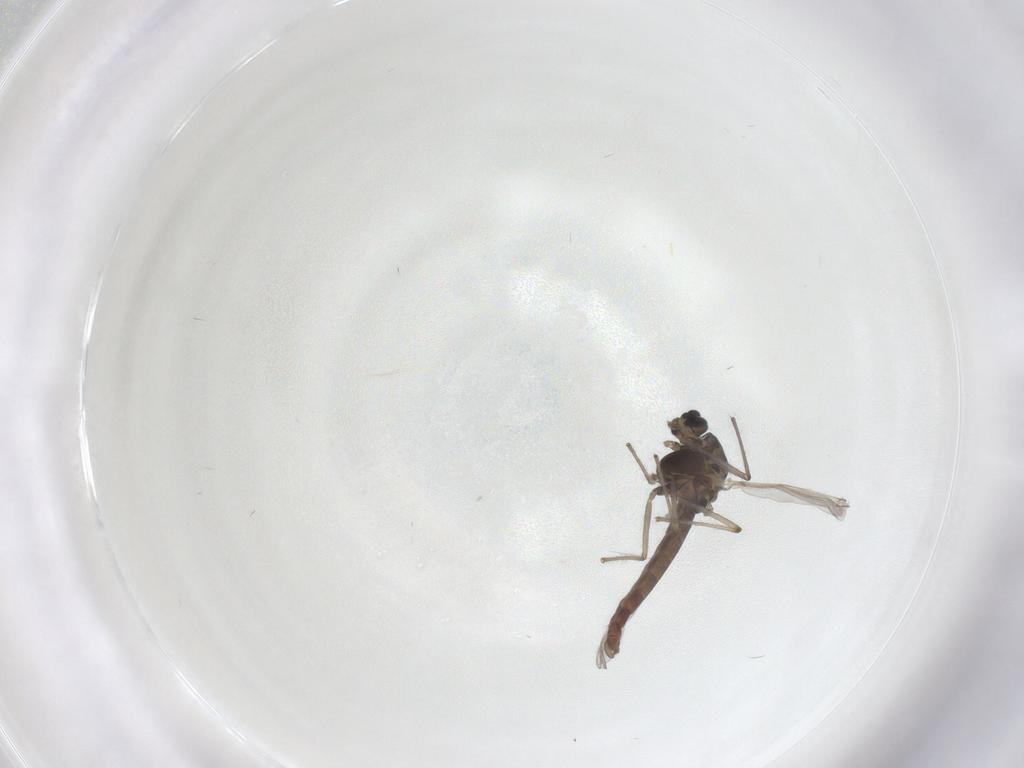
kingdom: Animalia
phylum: Arthropoda
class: Insecta
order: Diptera
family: Chironomidae
